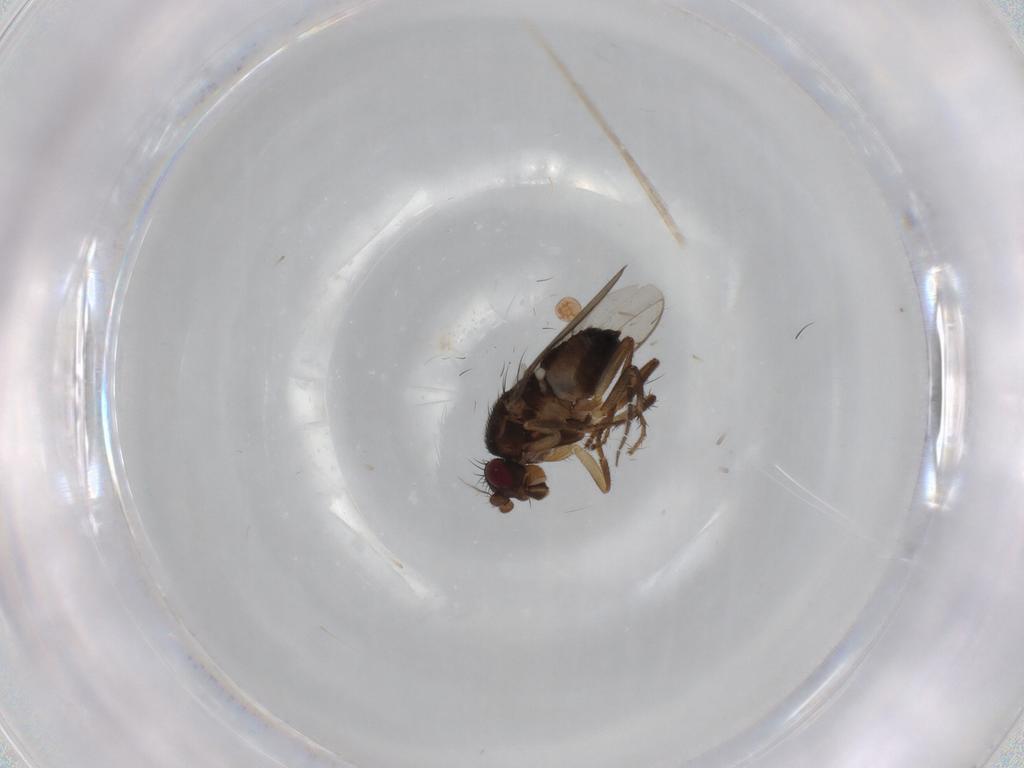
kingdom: Animalia
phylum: Arthropoda
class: Insecta
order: Diptera
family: Sphaeroceridae
